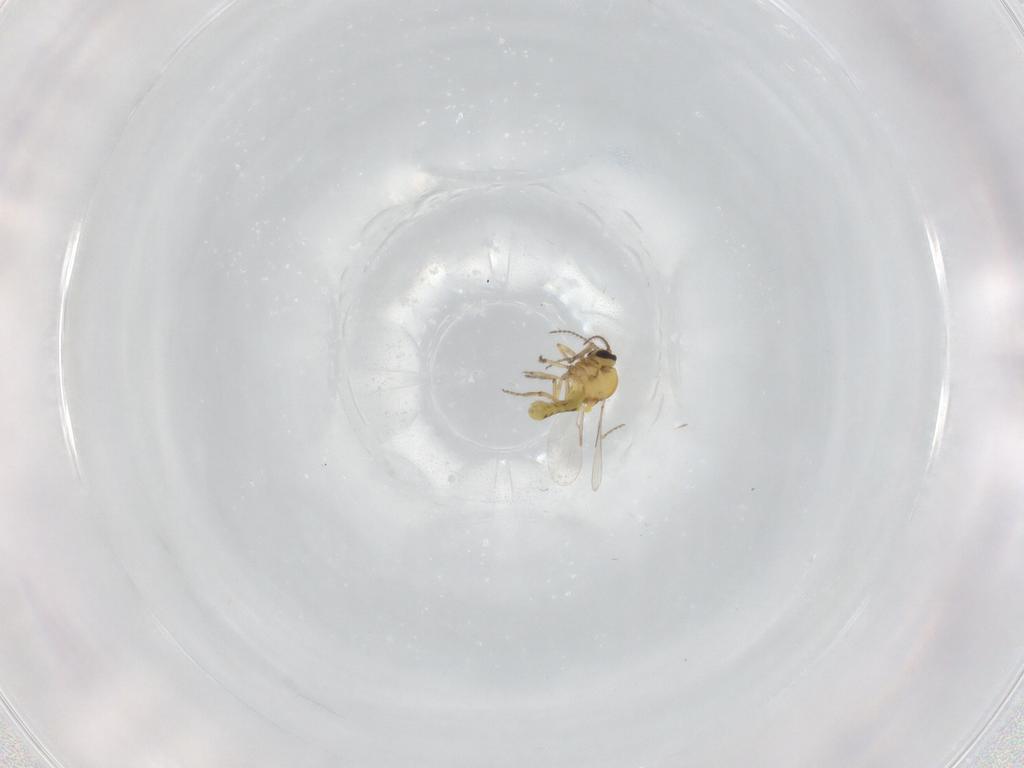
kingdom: Animalia
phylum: Arthropoda
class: Insecta
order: Diptera
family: Ceratopogonidae
